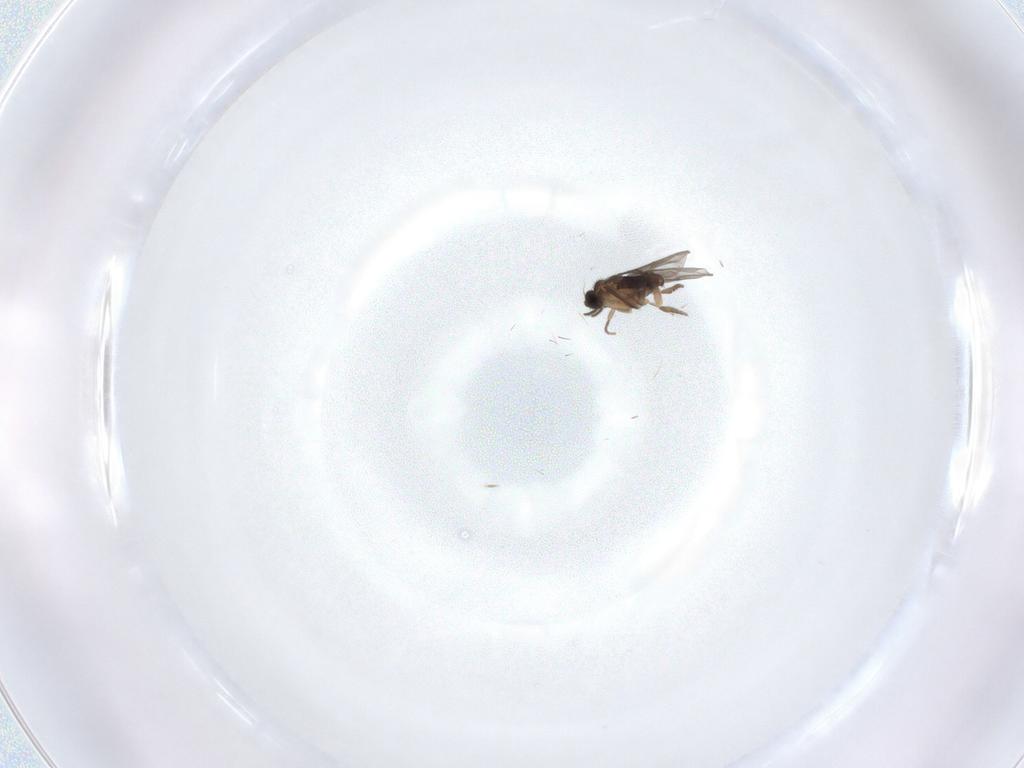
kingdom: Animalia
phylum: Arthropoda
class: Insecta
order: Diptera
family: Ceratopogonidae
